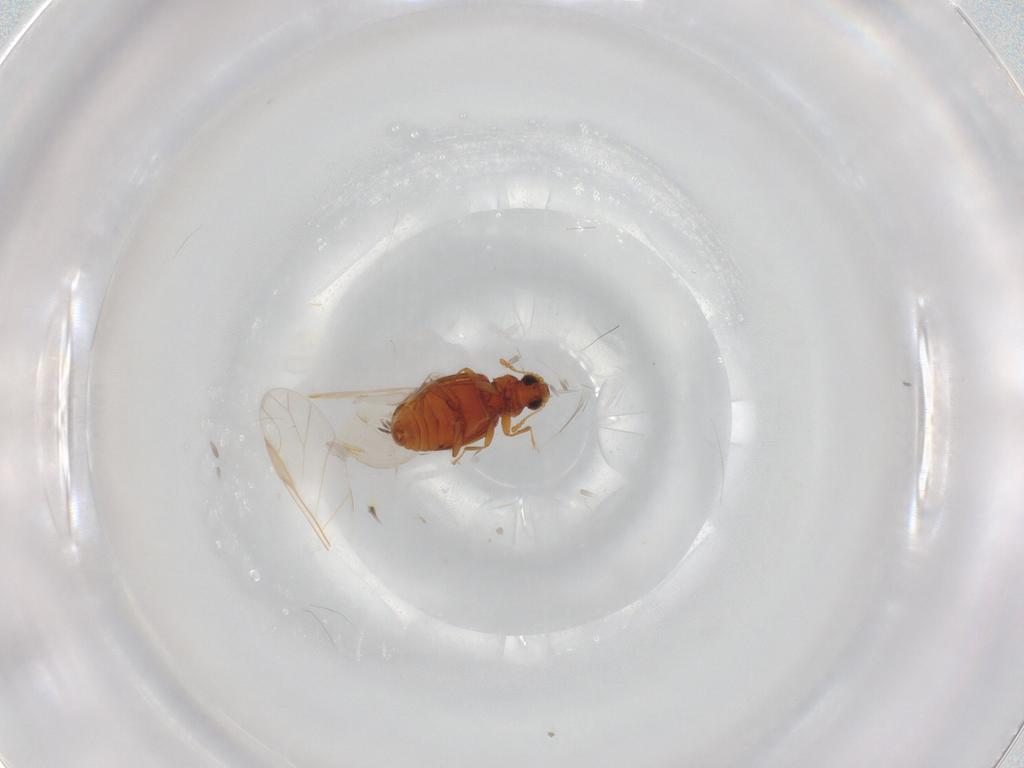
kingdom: Animalia
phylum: Arthropoda
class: Insecta
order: Coleoptera
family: Latridiidae
